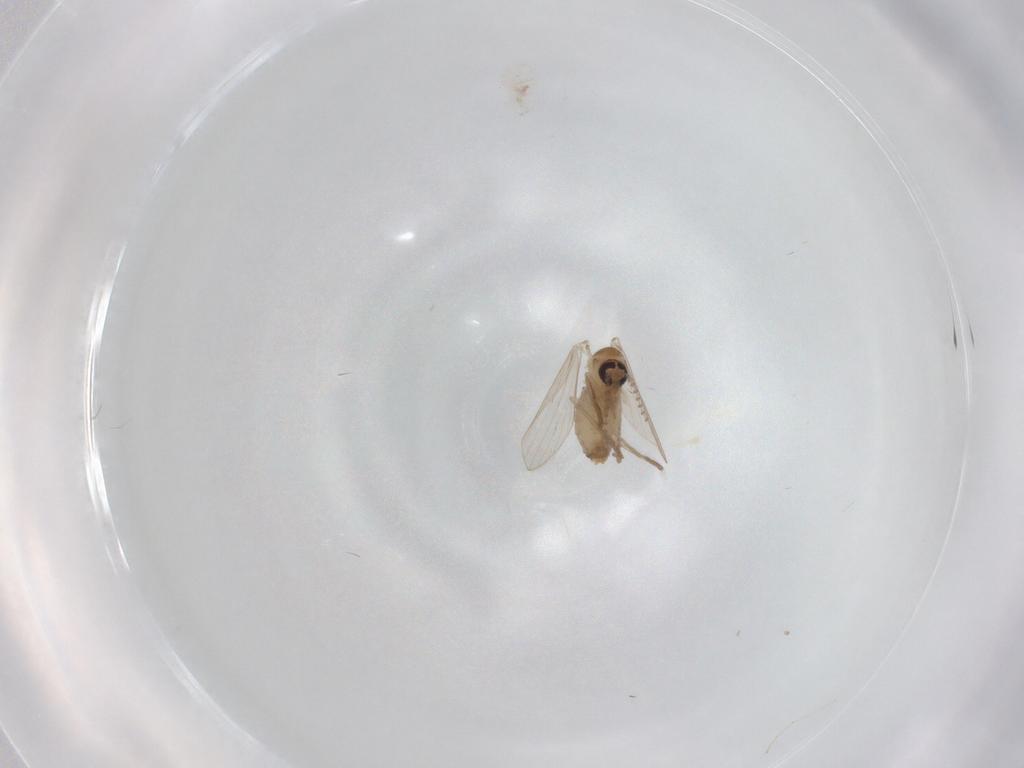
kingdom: Animalia
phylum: Arthropoda
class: Insecta
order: Diptera
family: Psychodidae
